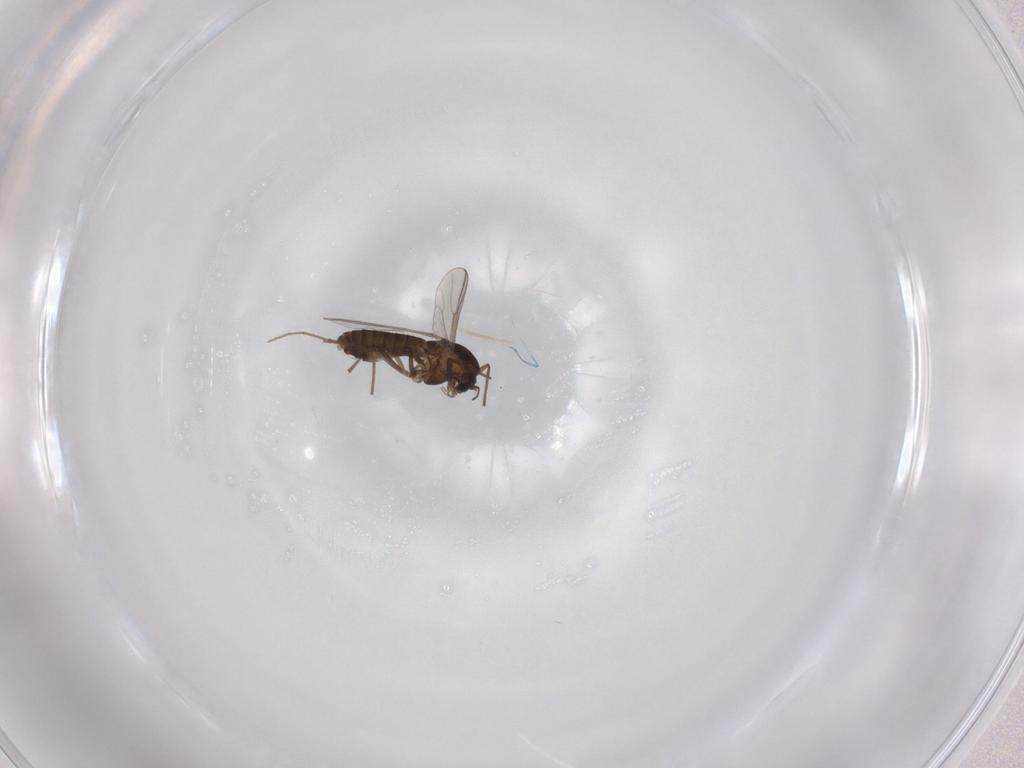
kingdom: Animalia
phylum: Arthropoda
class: Insecta
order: Diptera
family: Chironomidae
